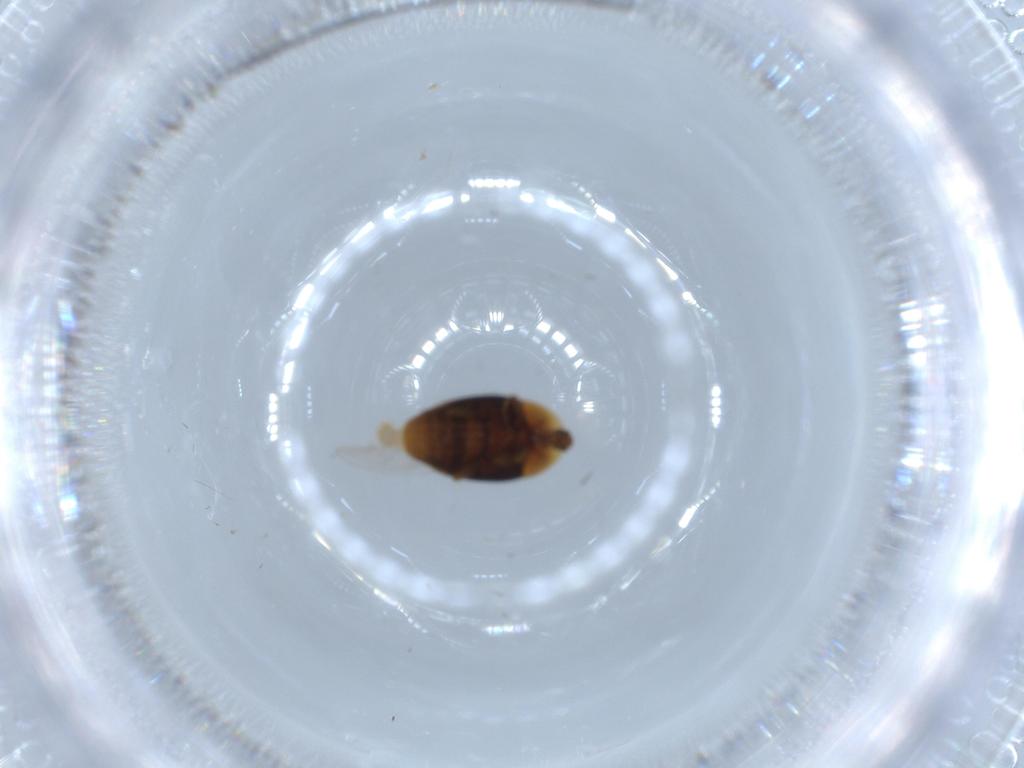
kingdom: Animalia
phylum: Arthropoda
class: Insecta
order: Coleoptera
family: Corylophidae
